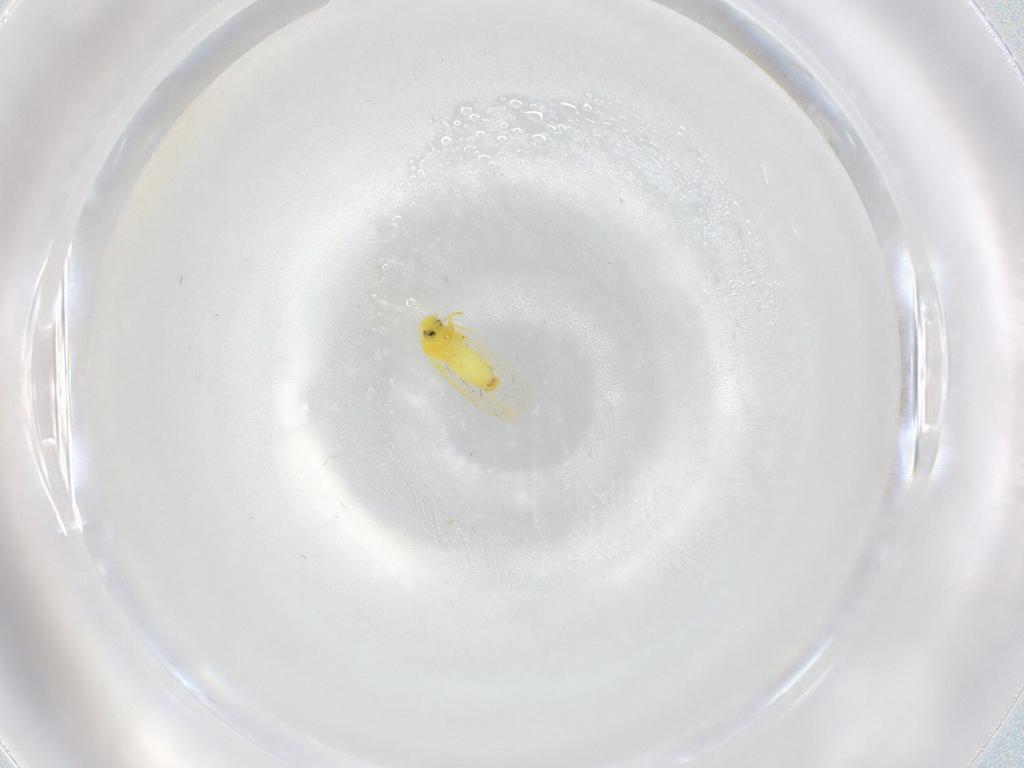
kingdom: Animalia
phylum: Arthropoda
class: Insecta
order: Hemiptera
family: Aleyrodidae
